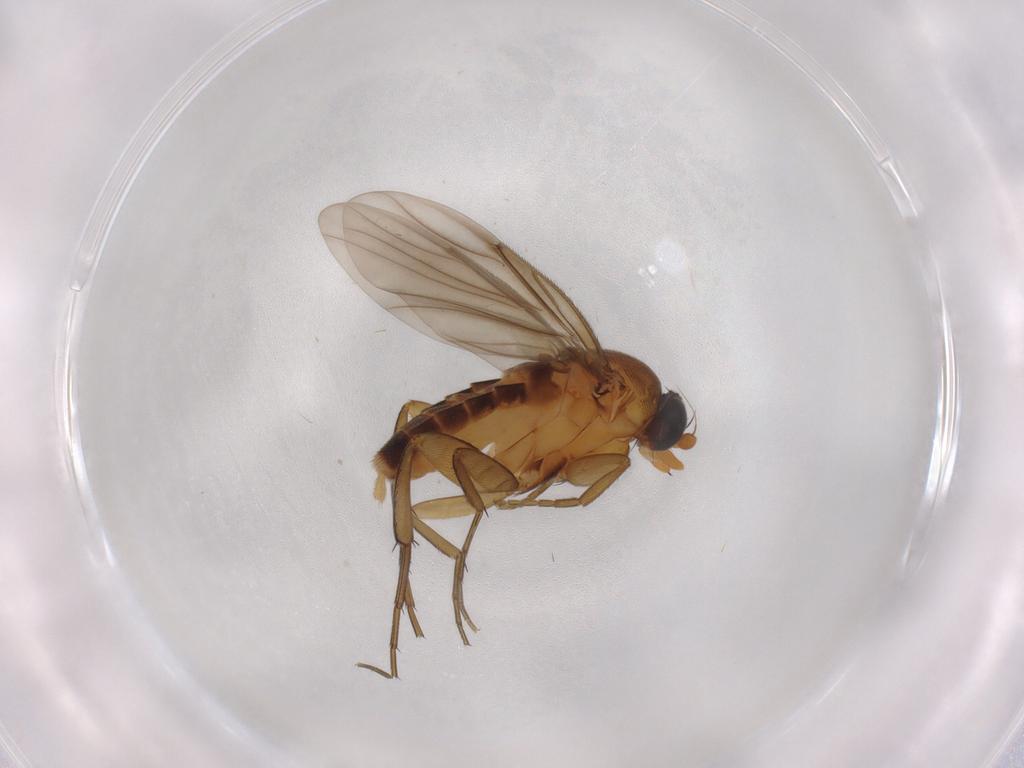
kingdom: Animalia
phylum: Arthropoda
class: Insecta
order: Diptera
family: Phoridae
